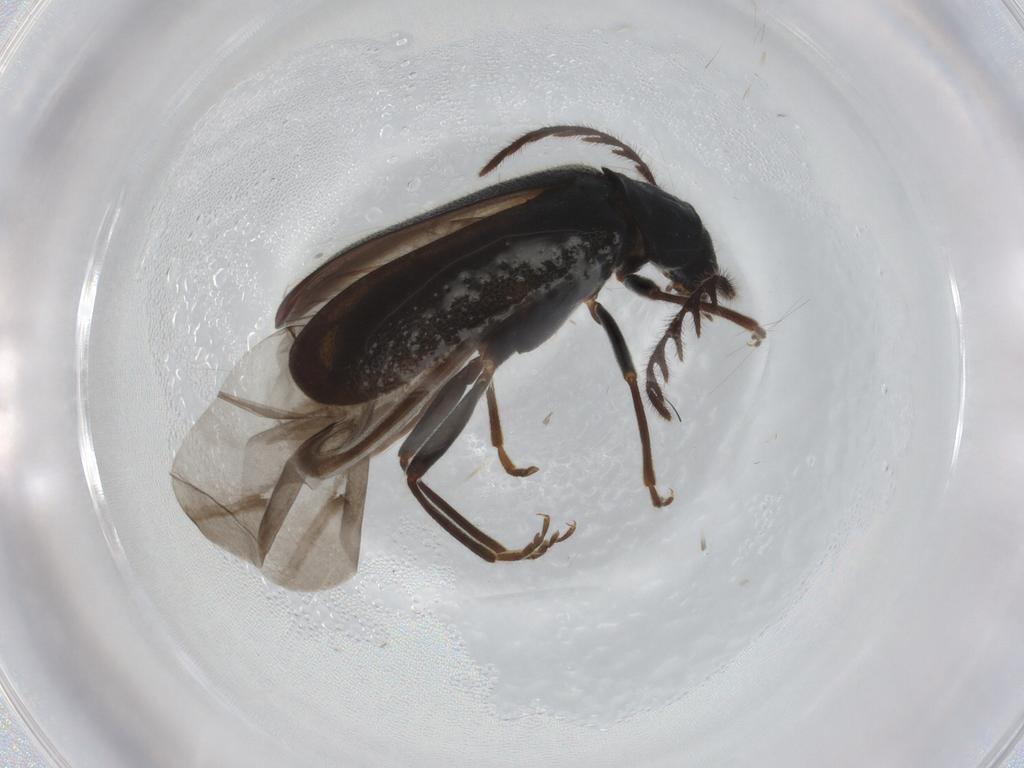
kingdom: Animalia
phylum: Arthropoda
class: Insecta
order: Coleoptera
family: Melyridae
